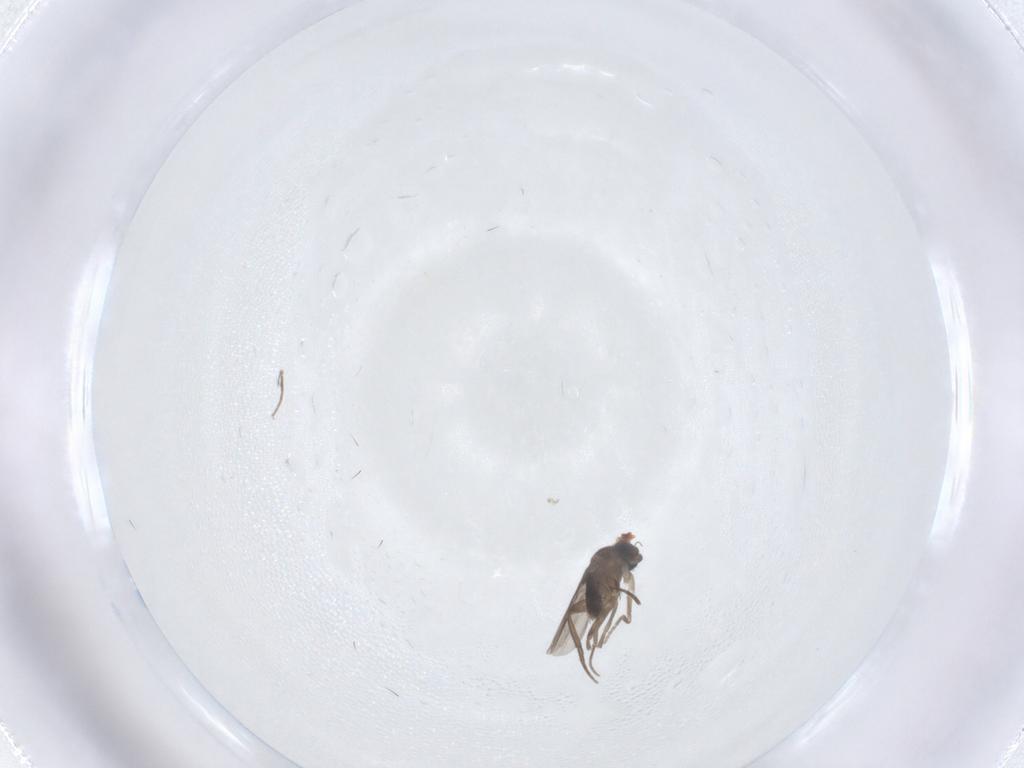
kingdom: Animalia
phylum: Arthropoda
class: Insecta
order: Diptera
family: Phoridae
